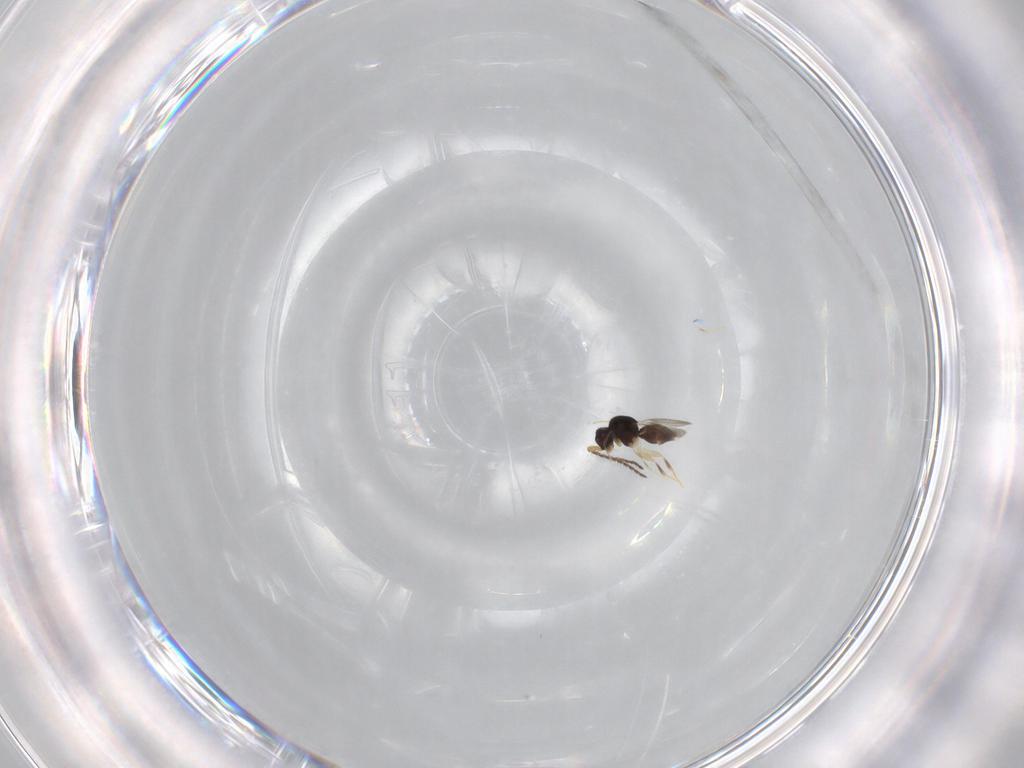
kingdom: Animalia
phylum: Arthropoda
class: Insecta
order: Hymenoptera
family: Ceraphronidae
